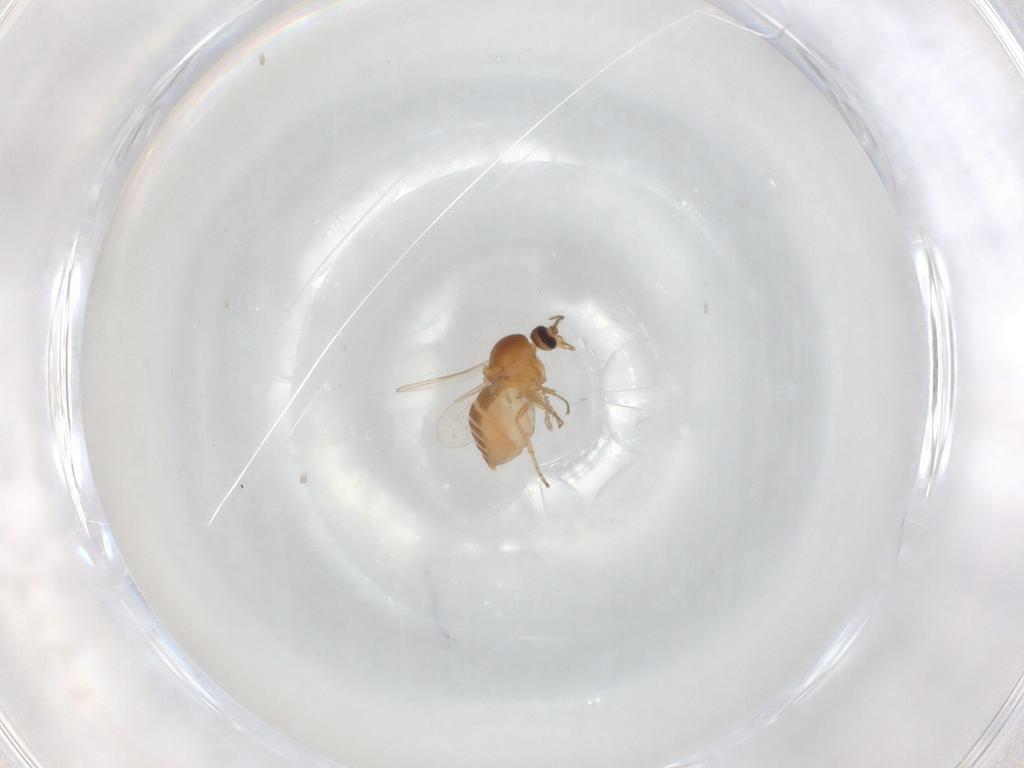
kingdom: Animalia
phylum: Arthropoda
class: Insecta
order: Diptera
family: Ceratopogonidae
